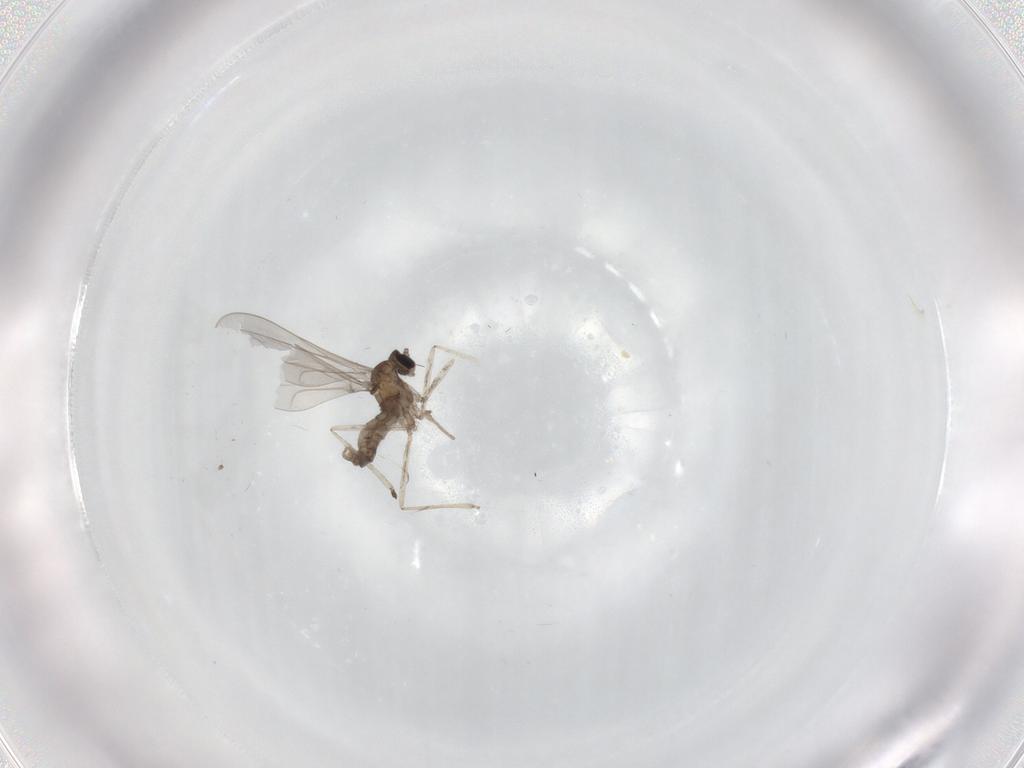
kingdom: Animalia
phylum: Arthropoda
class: Insecta
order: Diptera
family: Cecidomyiidae
